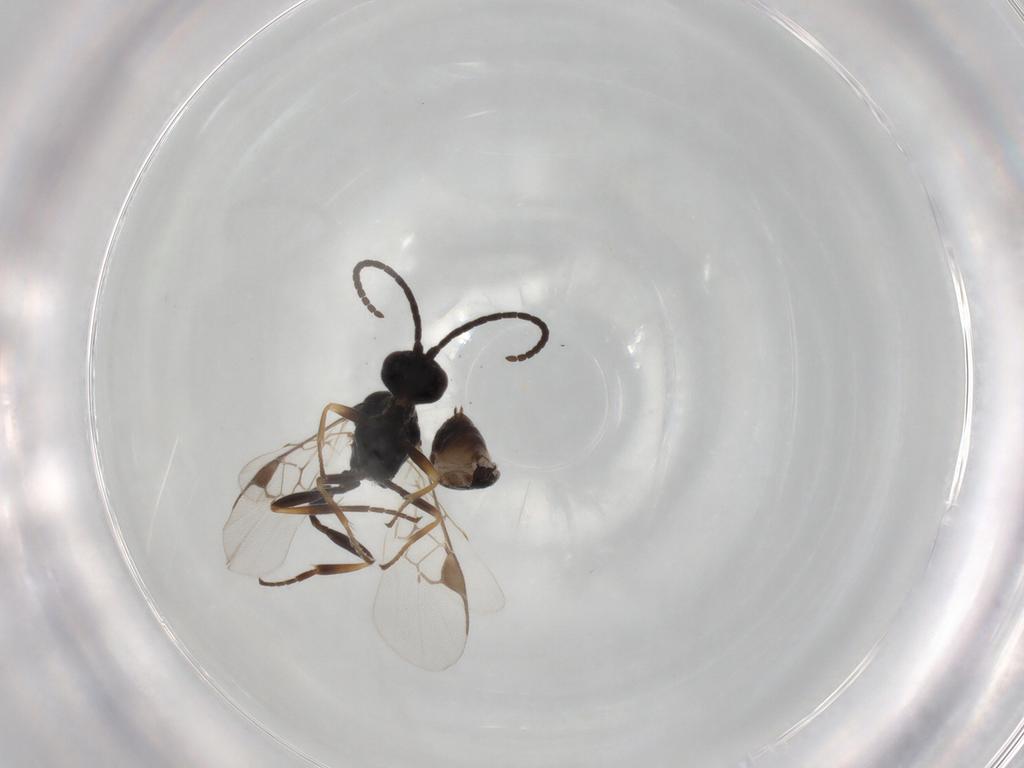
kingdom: Animalia
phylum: Arthropoda
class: Insecta
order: Hymenoptera
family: Braconidae
